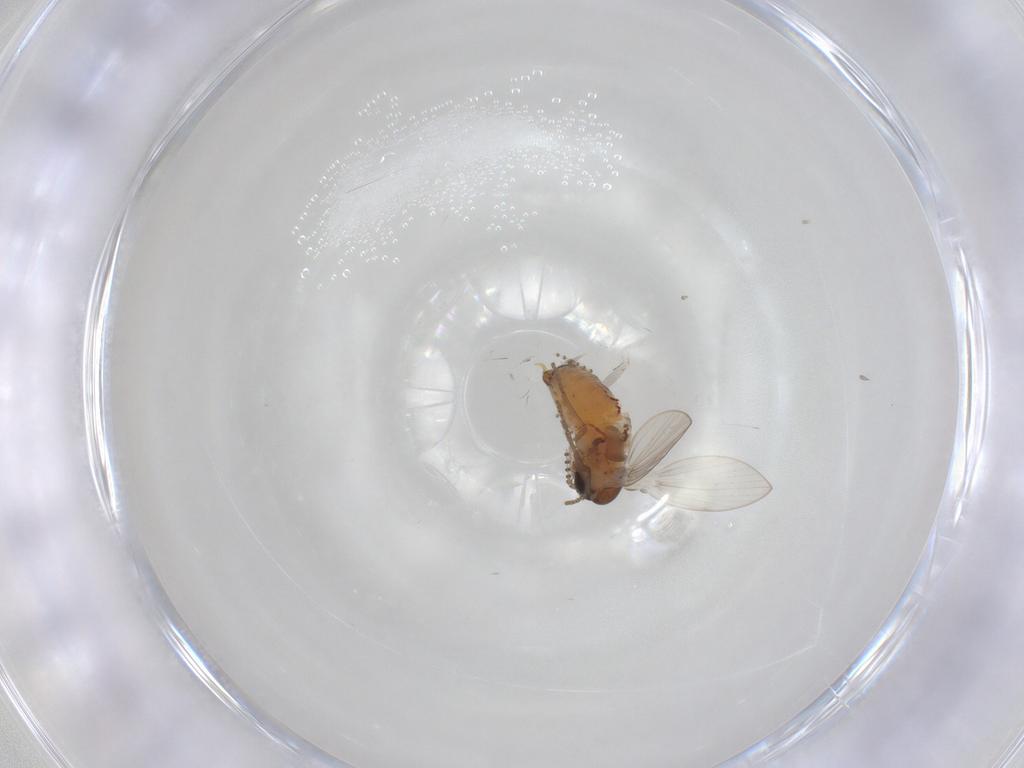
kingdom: Animalia
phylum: Arthropoda
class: Insecta
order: Diptera
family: Psychodidae
